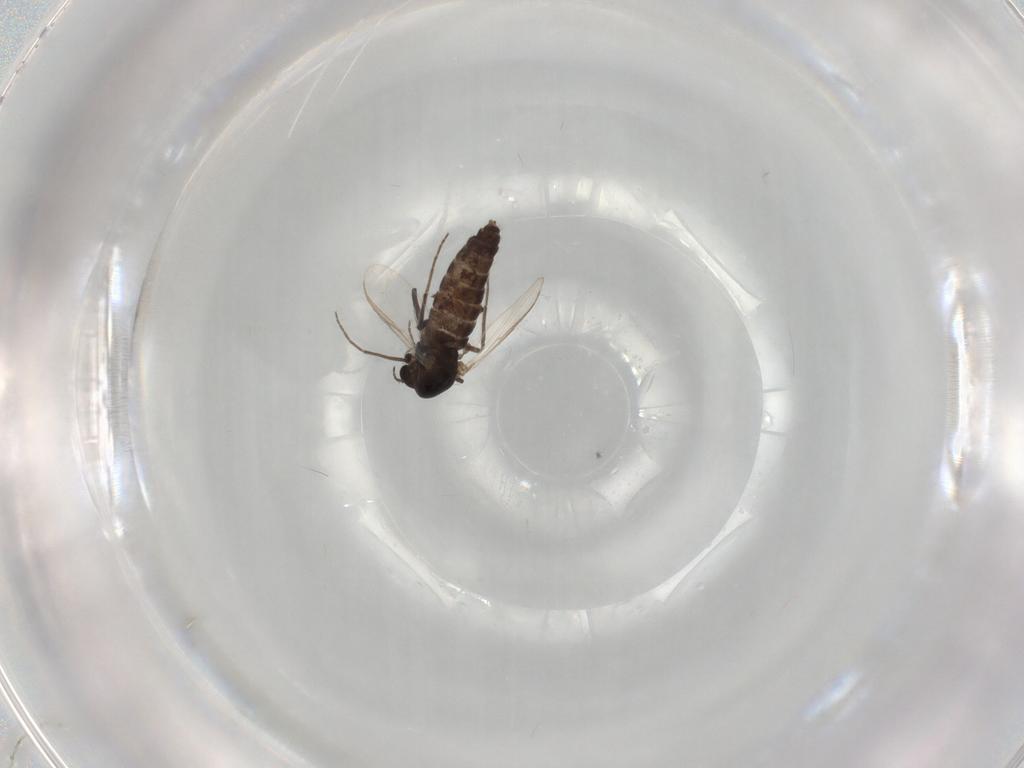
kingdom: Animalia
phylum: Arthropoda
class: Insecta
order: Diptera
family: Chironomidae
